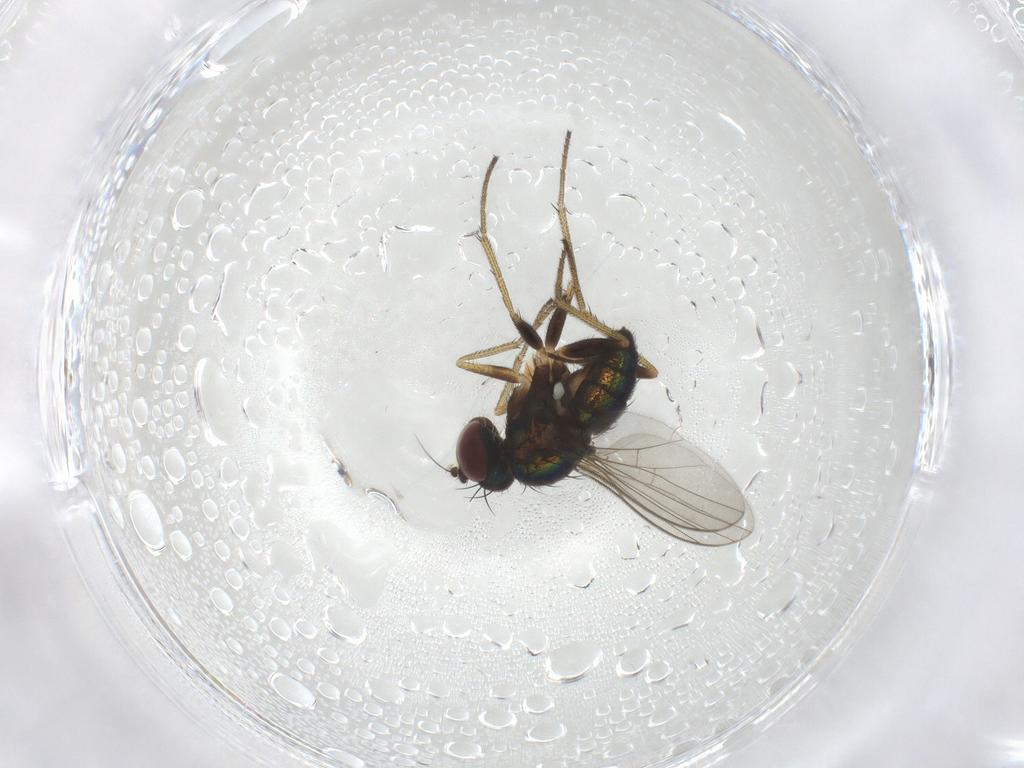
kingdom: Animalia
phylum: Arthropoda
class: Insecta
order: Diptera
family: Sciaridae
